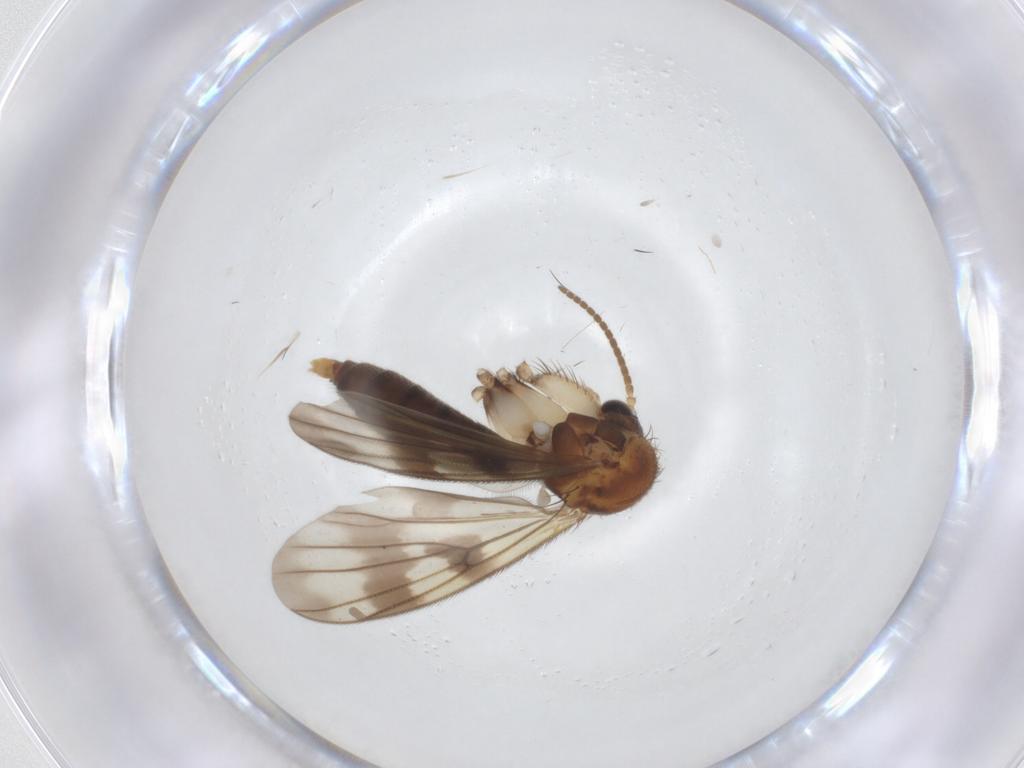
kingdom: Animalia
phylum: Arthropoda
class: Insecta
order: Diptera
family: Mycetophilidae
